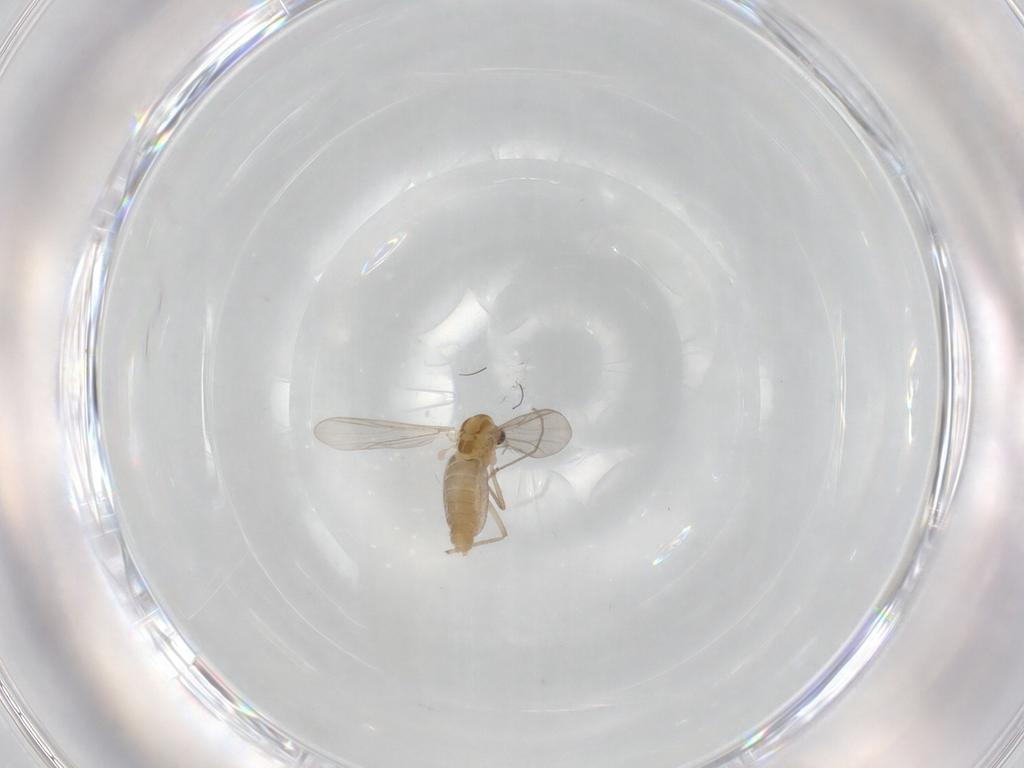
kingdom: Animalia
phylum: Arthropoda
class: Insecta
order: Diptera
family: Chironomidae
